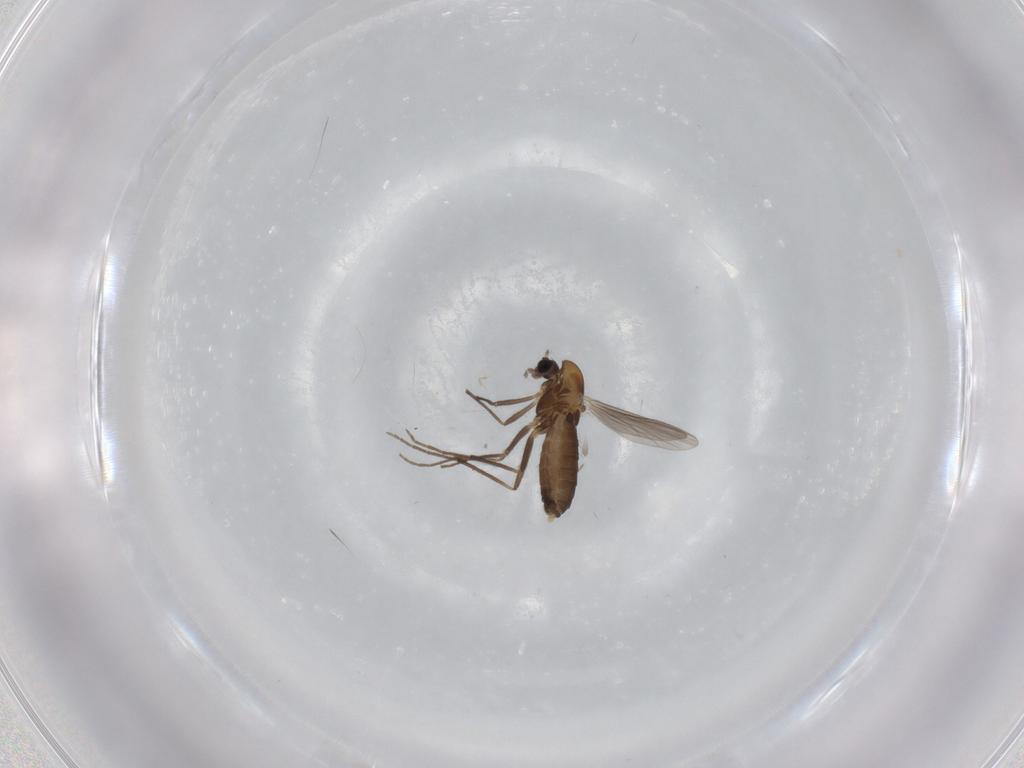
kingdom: Animalia
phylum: Arthropoda
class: Insecta
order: Diptera
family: Chironomidae
